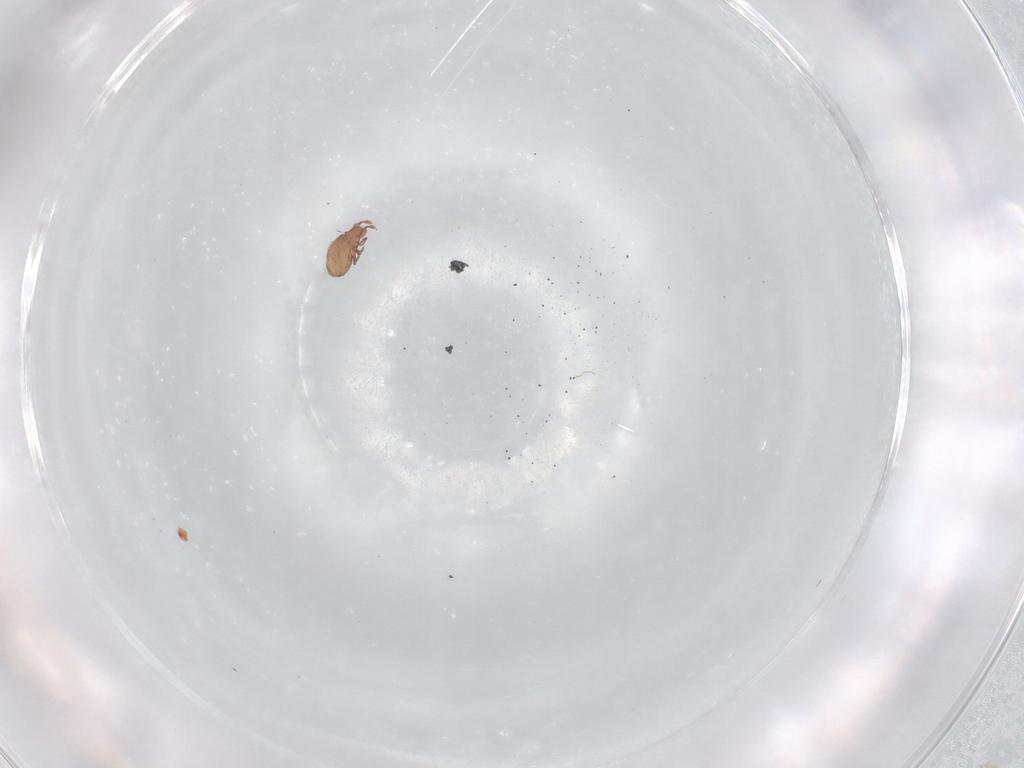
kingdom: Animalia
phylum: Arthropoda
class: Arachnida
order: Sarcoptiformes
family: Eremaeidae
